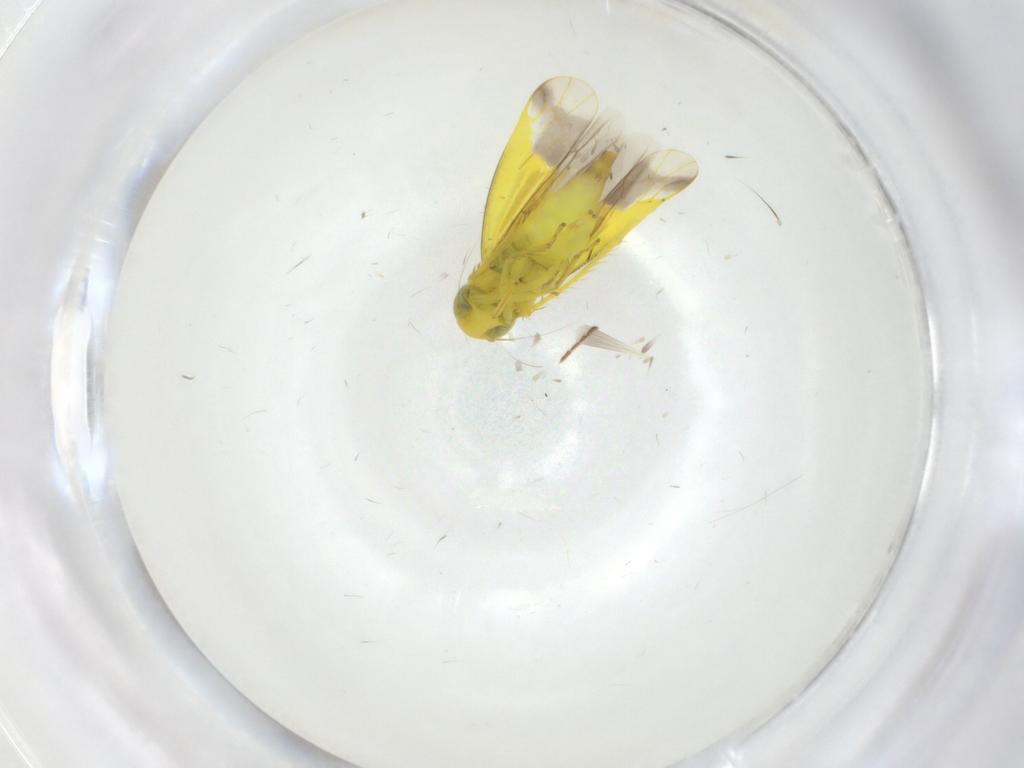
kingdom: Animalia
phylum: Arthropoda
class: Insecta
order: Hemiptera
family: Cicadellidae
